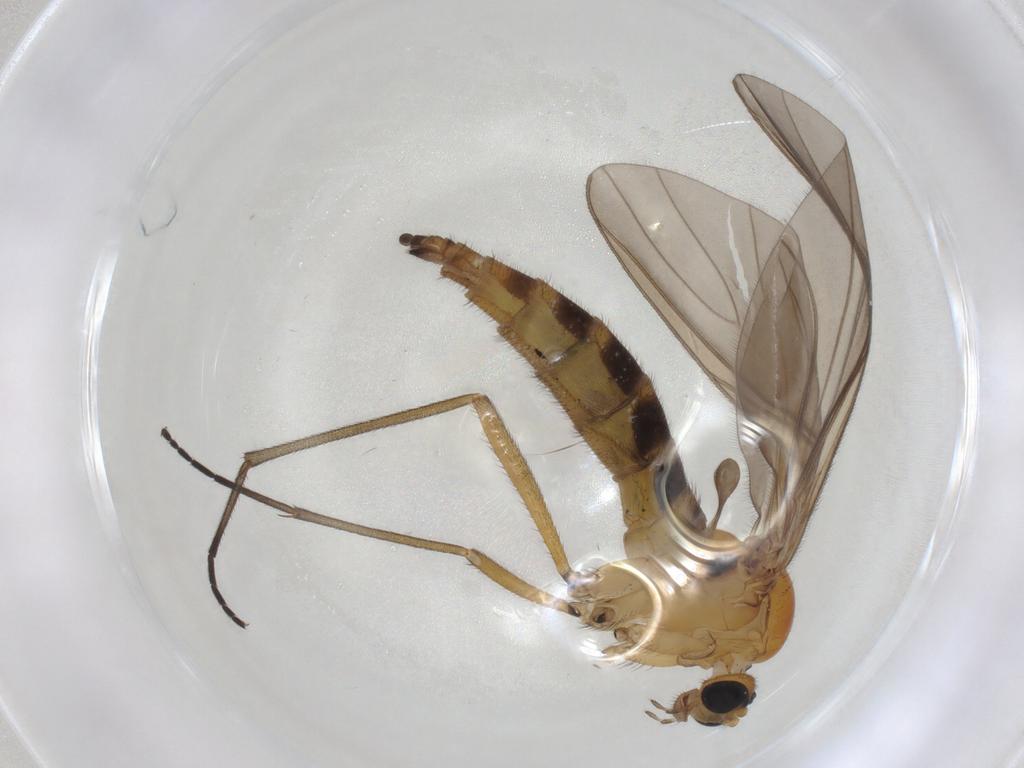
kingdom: Animalia
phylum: Arthropoda
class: Insecta
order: Diptera
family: Sciaridae
